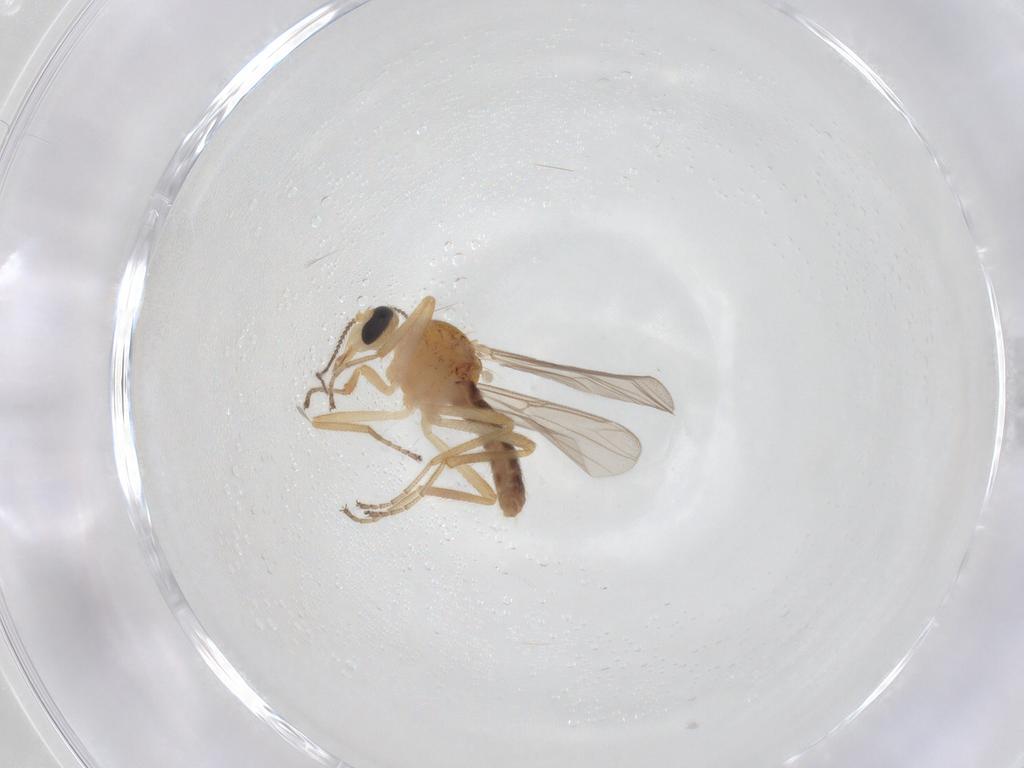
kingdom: Animalia
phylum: Arthropoda
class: Insecta
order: Diptera
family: Ceratopogonidae
